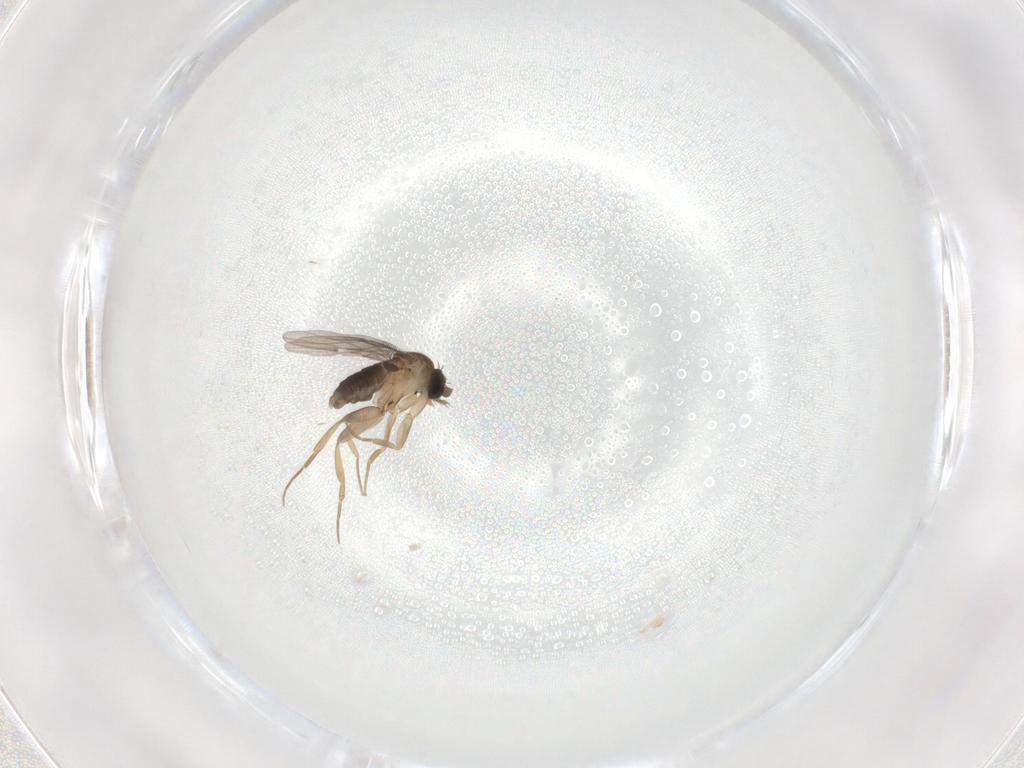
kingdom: Animalia
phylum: Arthropoda
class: Insecta
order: Diptera
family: Phoridae
